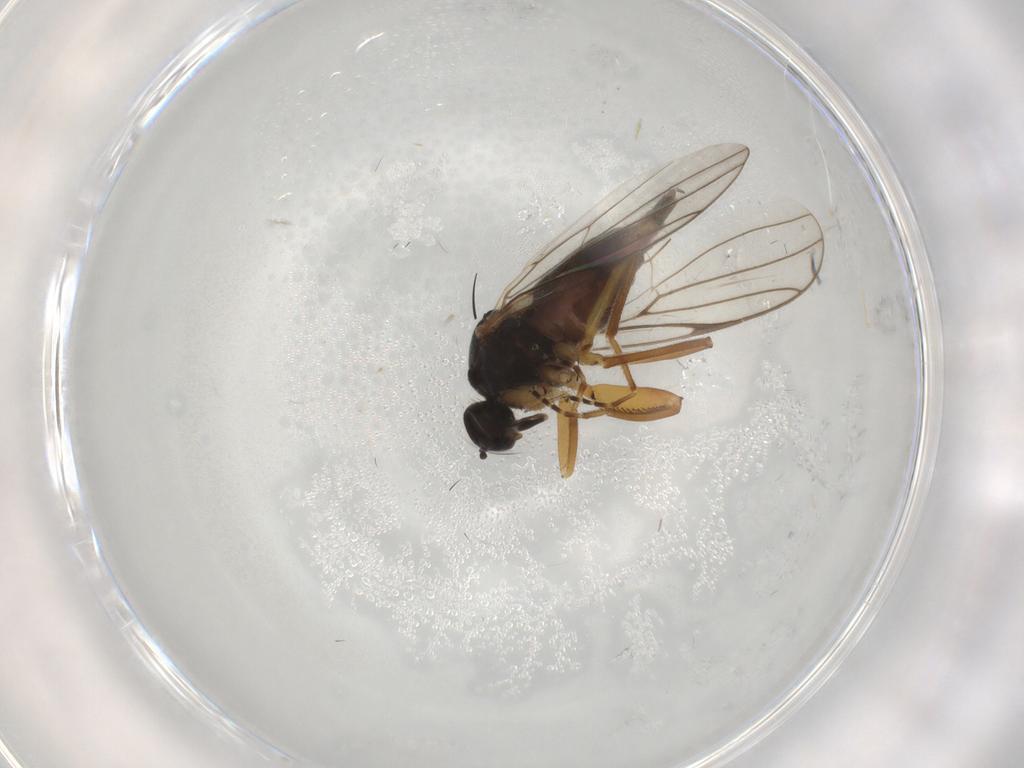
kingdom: Animalia
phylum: Arthropoda
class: Insecta
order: Diptera
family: Hybotidae
